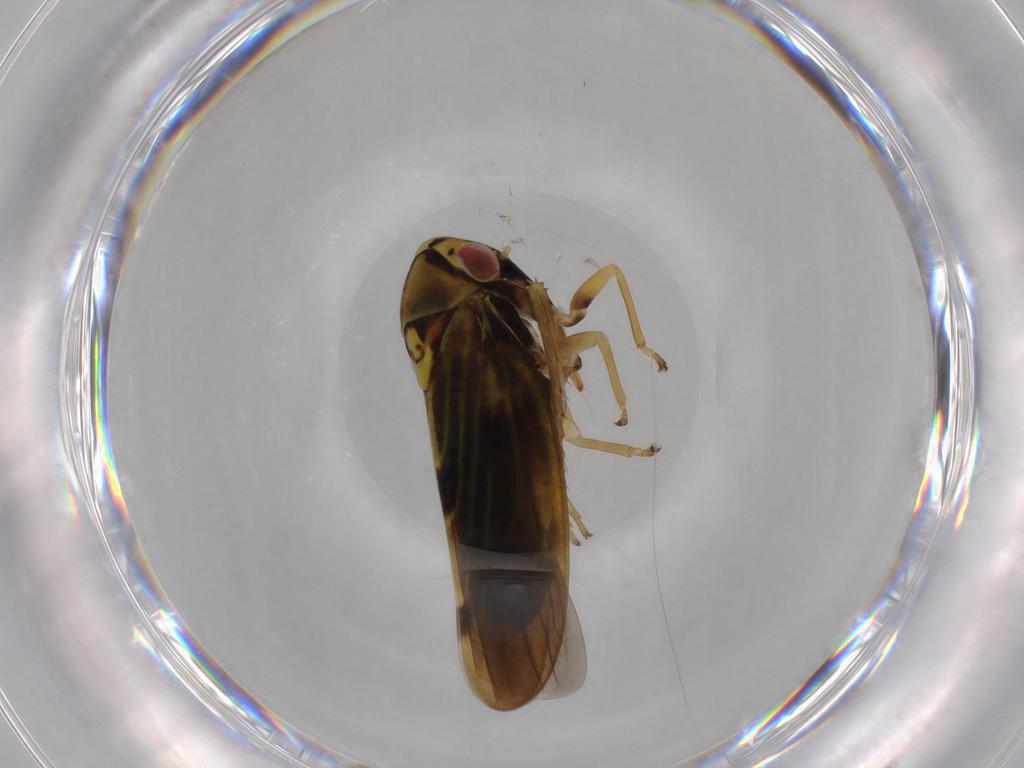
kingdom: Animalia
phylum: Arthropoda
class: Insecta
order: Hemiptera
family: Cicadellidae
